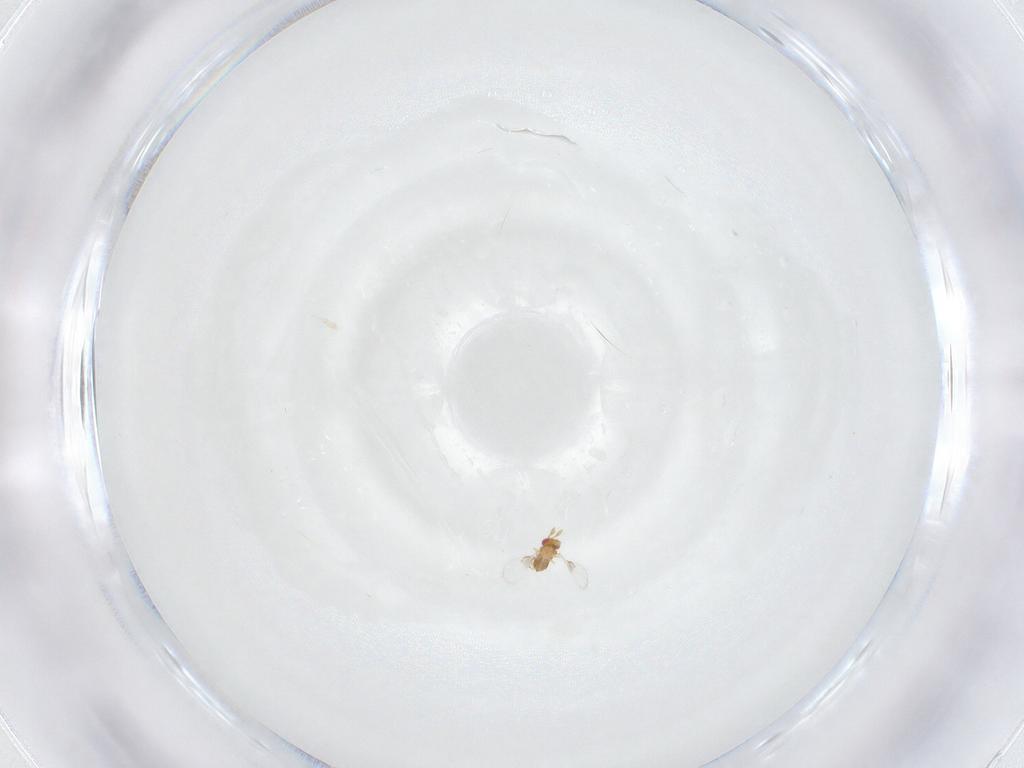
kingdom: Animalia
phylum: Arthropoda
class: Insecta
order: Hymenoptera
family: Trichogrammatidae
